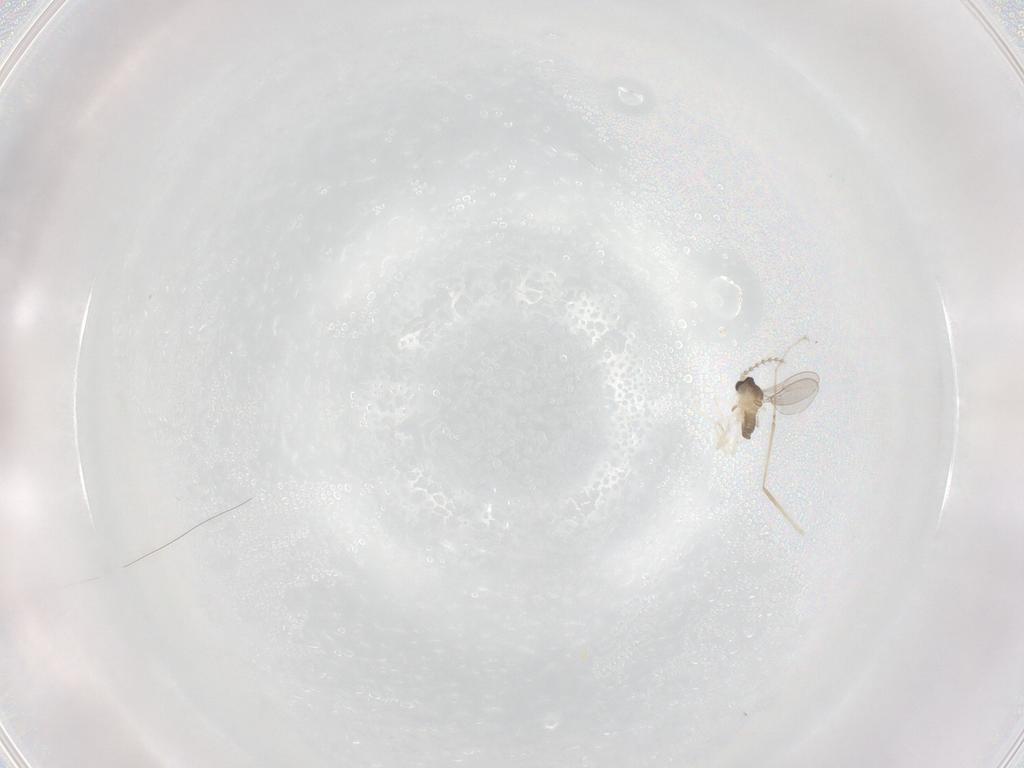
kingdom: Animalia
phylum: Arthropoda
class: Insecta
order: Diptera
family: Cecidomyiidae
